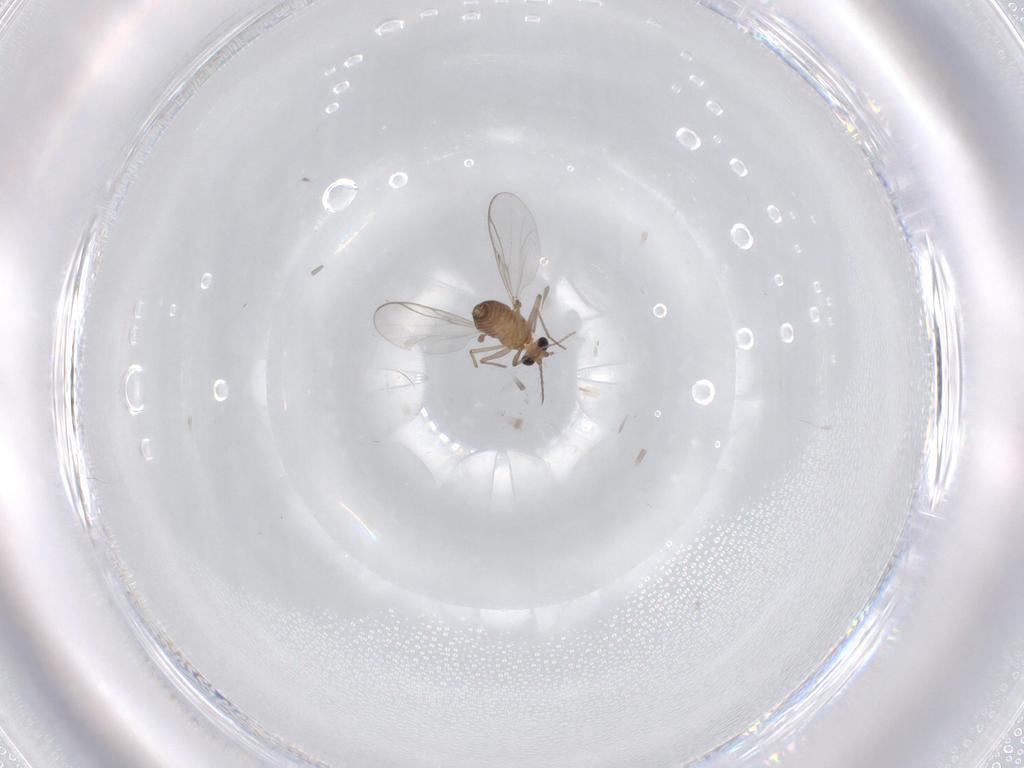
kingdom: Animalia
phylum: Arthropoda
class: Insecta
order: Diptera
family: Chironomidae
